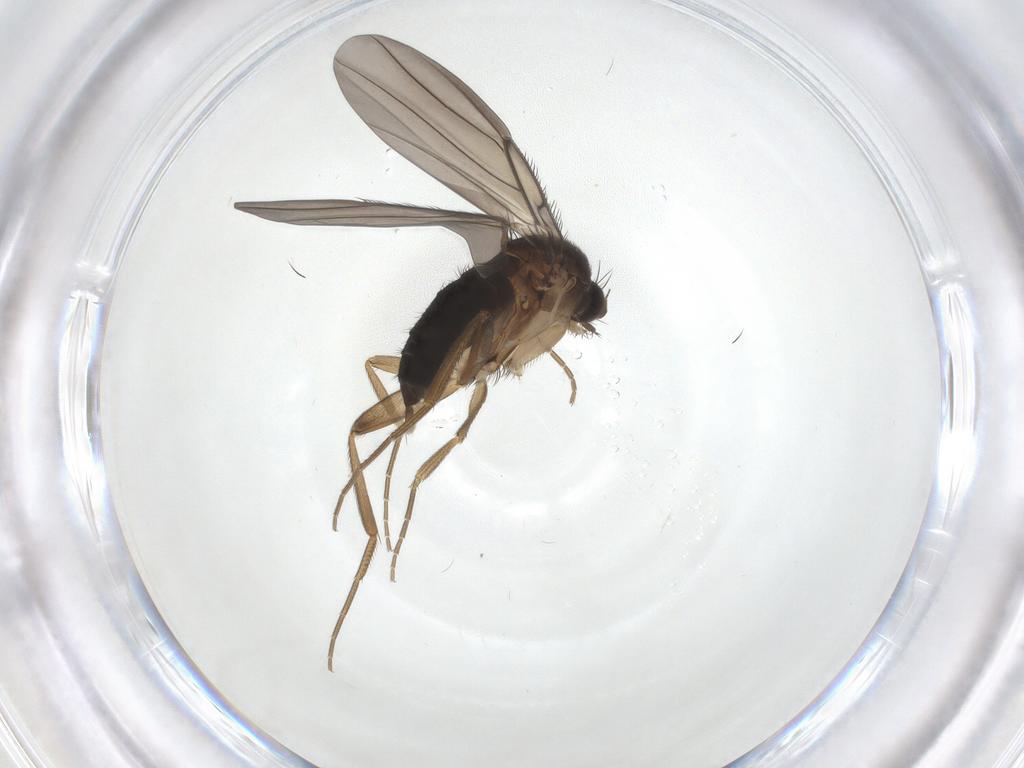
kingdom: Animalia
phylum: Arthropoda
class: Insecta
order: Diptera
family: Phoridae
